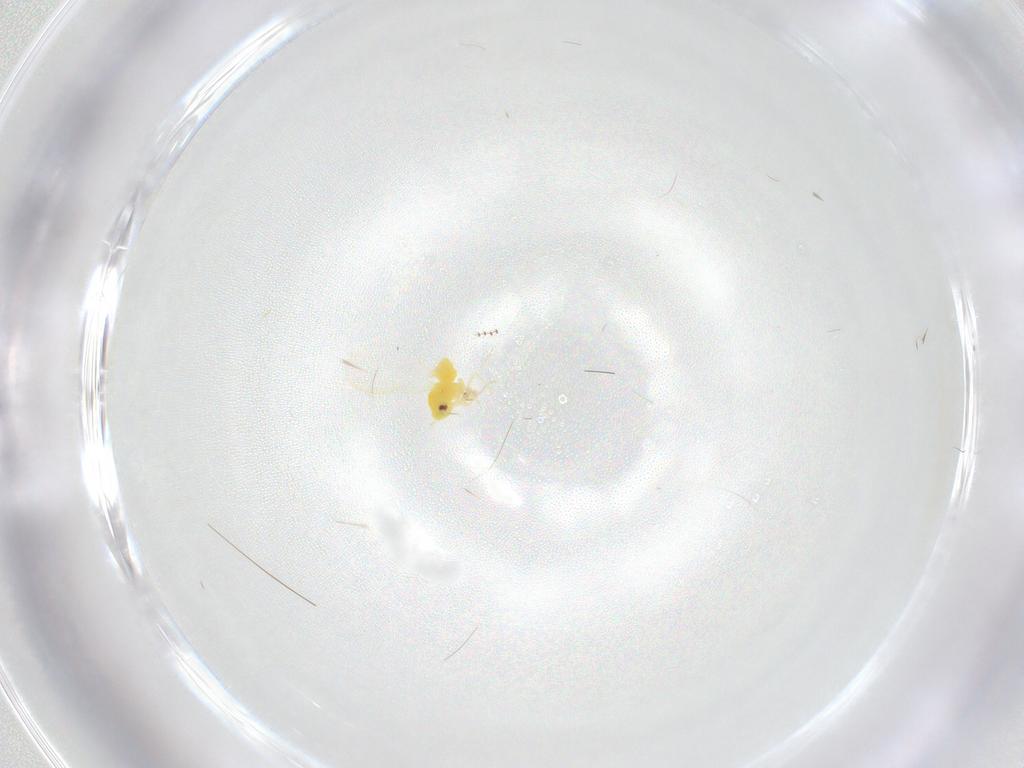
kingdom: Animalia
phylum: Arthropoda
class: Insecta
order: Hemiptera
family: Aleyrodidae
